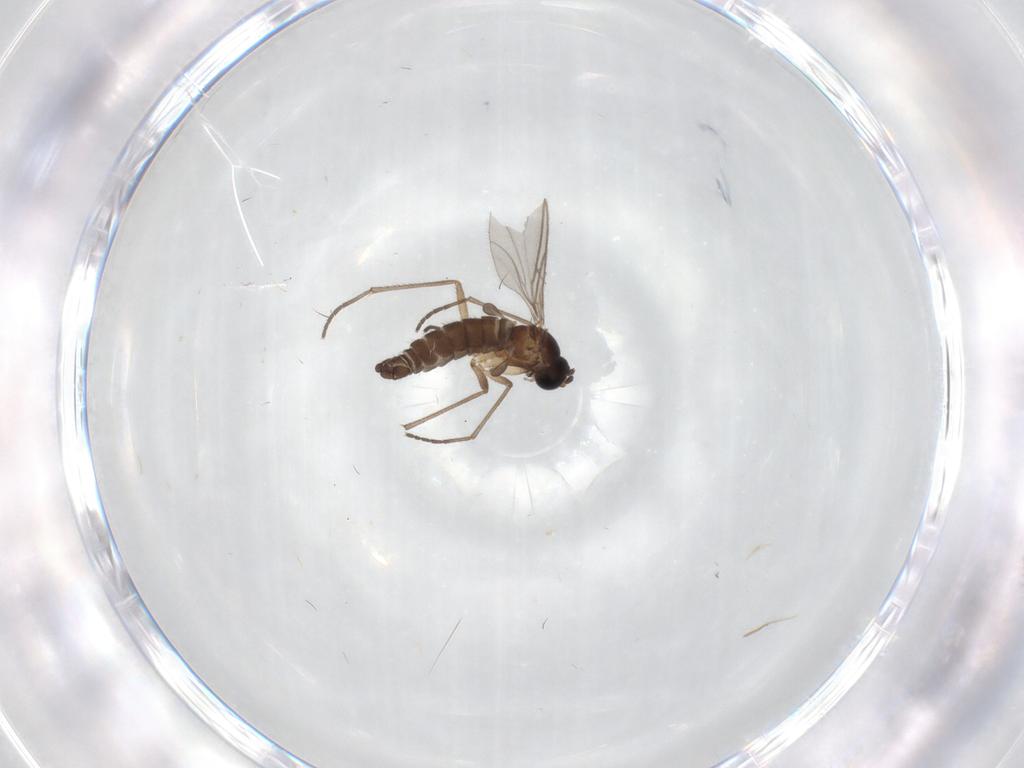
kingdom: Animalia
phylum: Arthropoda
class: Insecta
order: Diptera
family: Sciaridae
